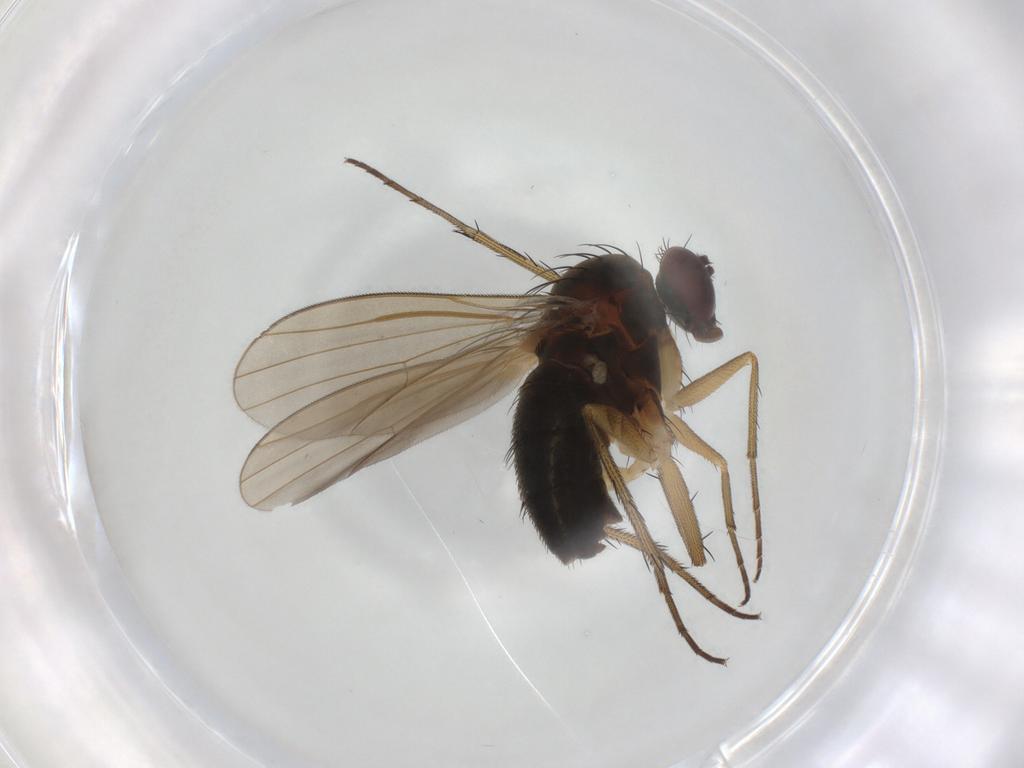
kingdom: Animalia
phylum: Arthropoda
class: Insecta
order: Diptera
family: Dolichopodidae
